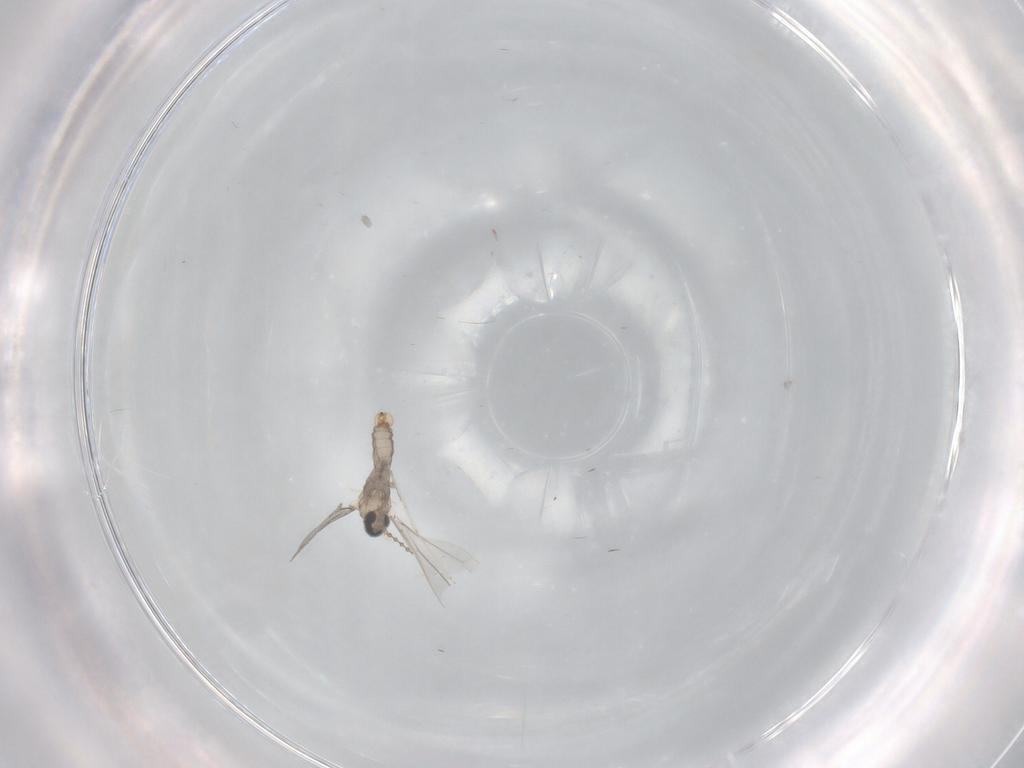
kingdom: Animalia
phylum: Arthropoda
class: Insecta
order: Diptera
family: Cecidomyiidae
